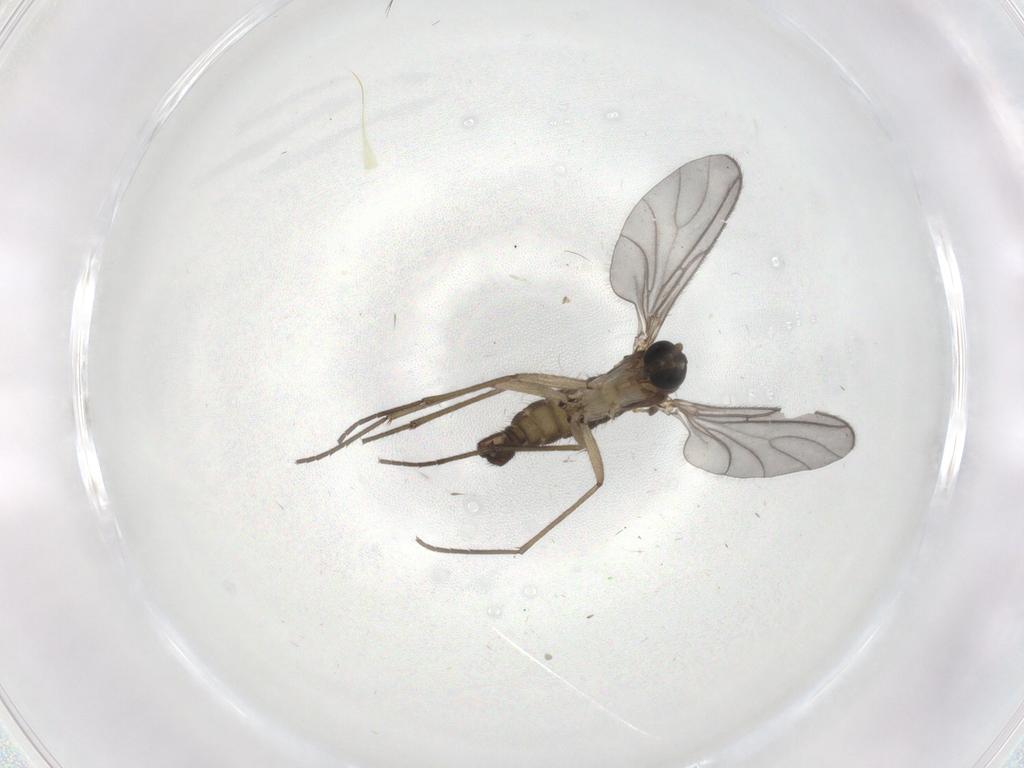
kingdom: Animalia
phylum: Arthropoda
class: Insecta
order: Diptera
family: Sciaridae
